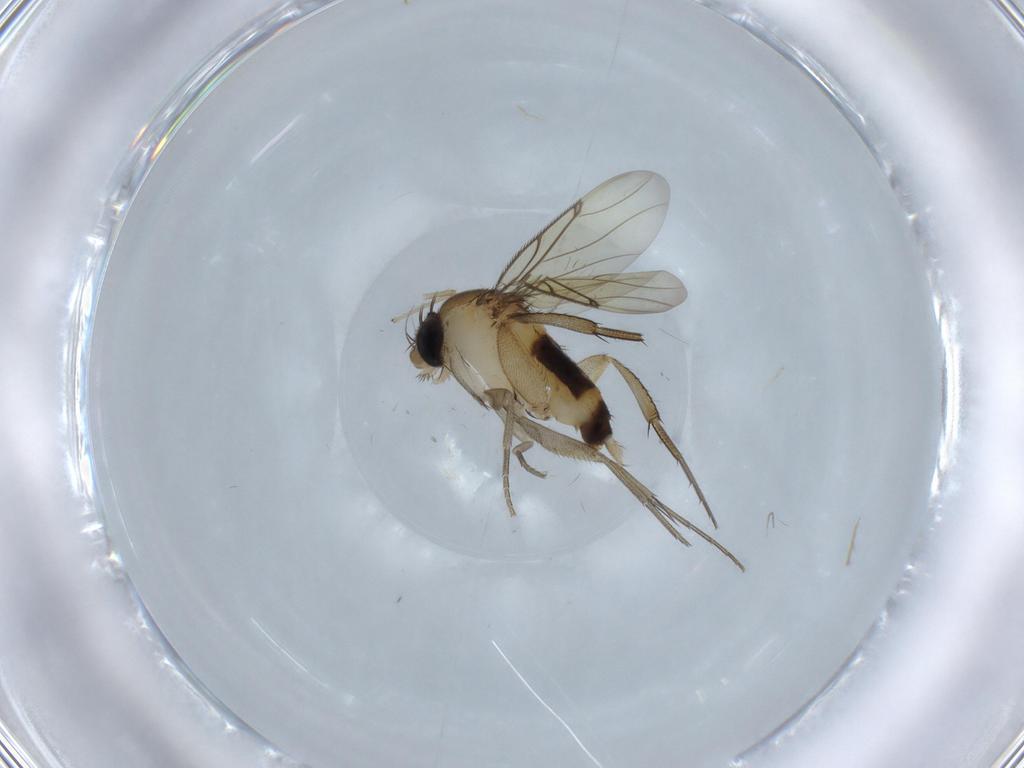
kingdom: Animalia
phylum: Arthropoda
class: Insecta
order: Diptera
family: Phoridae
